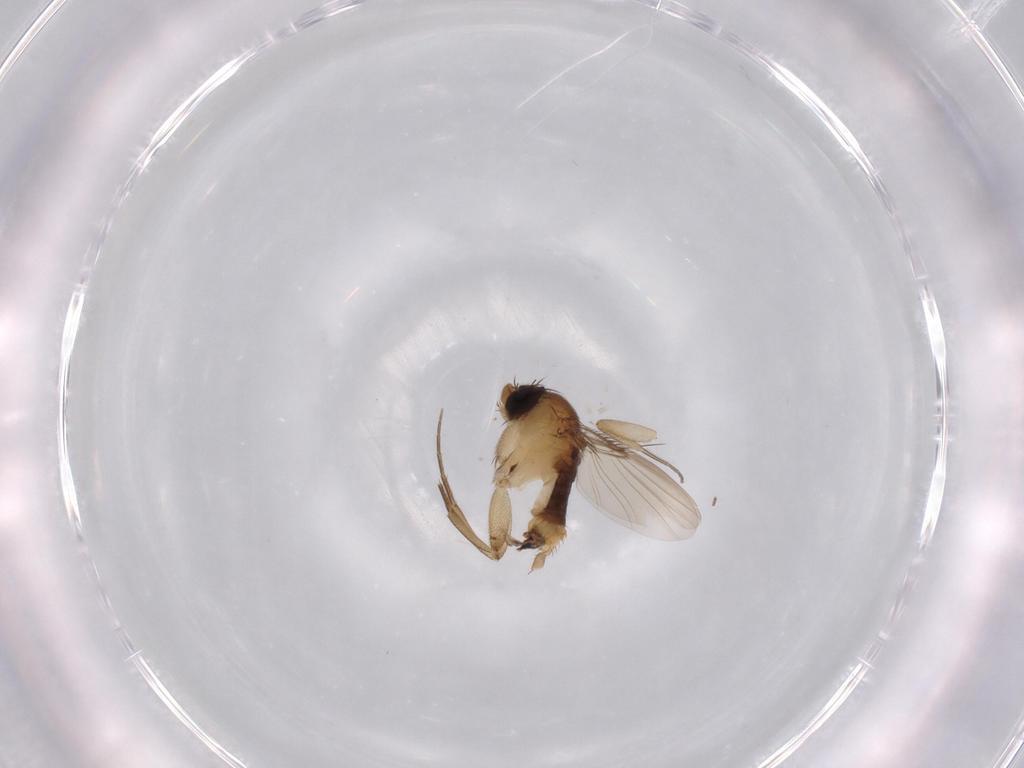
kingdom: Animalia
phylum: Arthropoda
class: Insecta
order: Diptera
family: Phoridae
